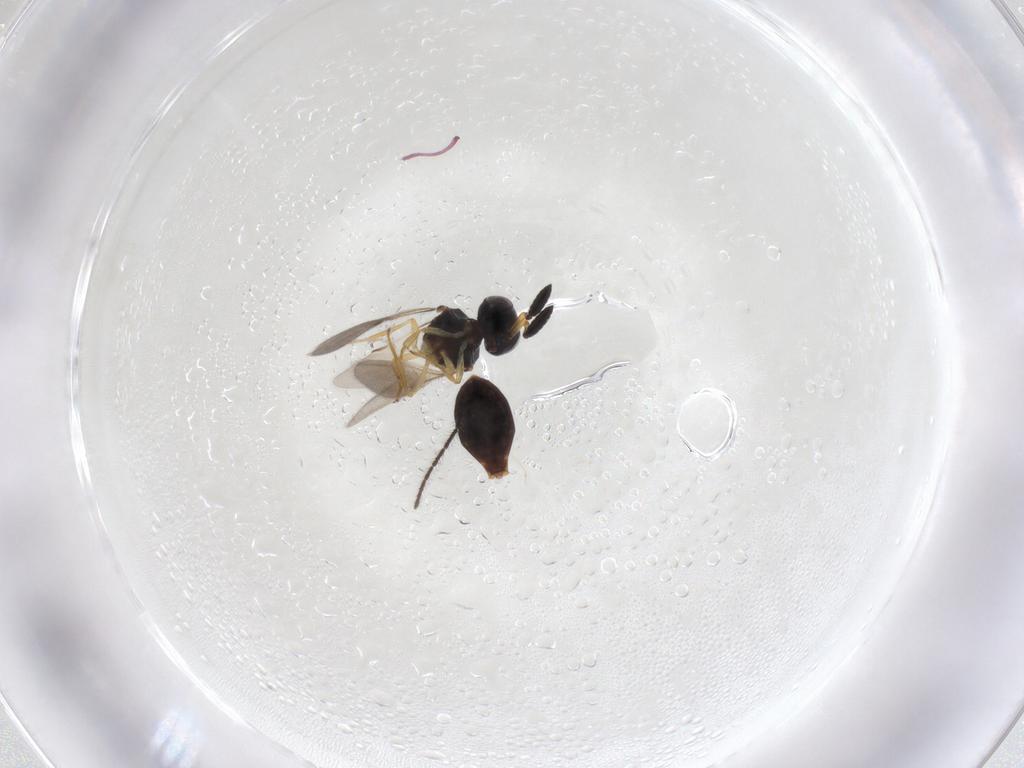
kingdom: Animalia
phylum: Arthropoda
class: Insecta
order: Hymenoptera
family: Scelionidae
